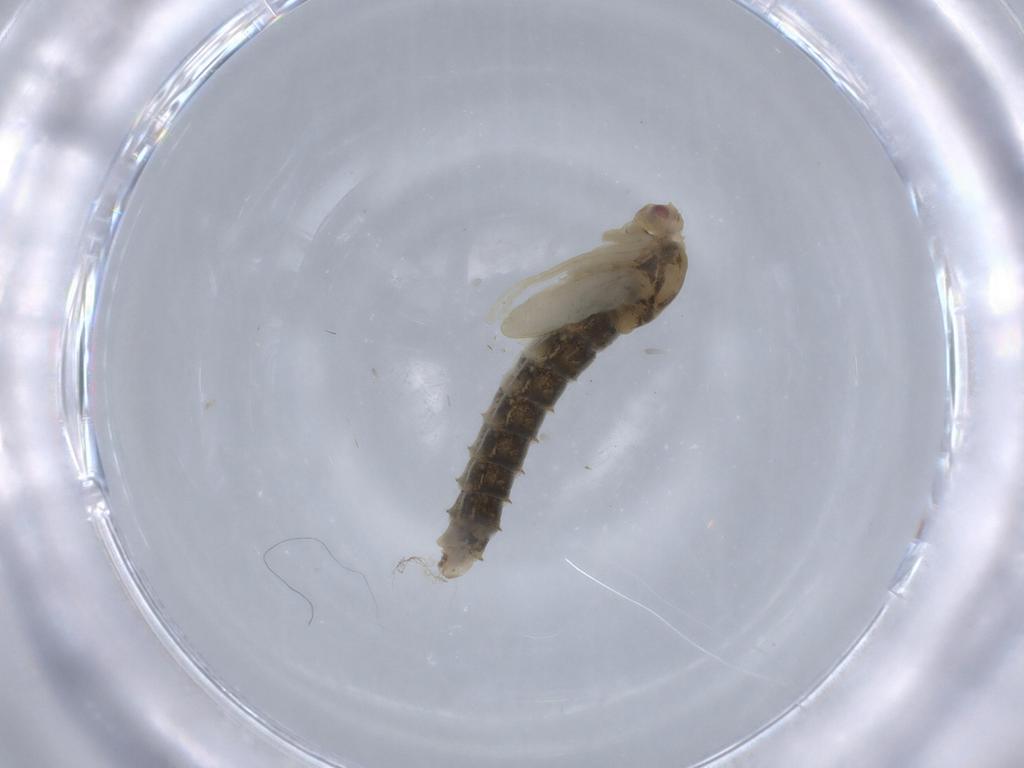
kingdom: Animalia
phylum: Arthropoda
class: Insecta
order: Diptera
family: Chironomidae
